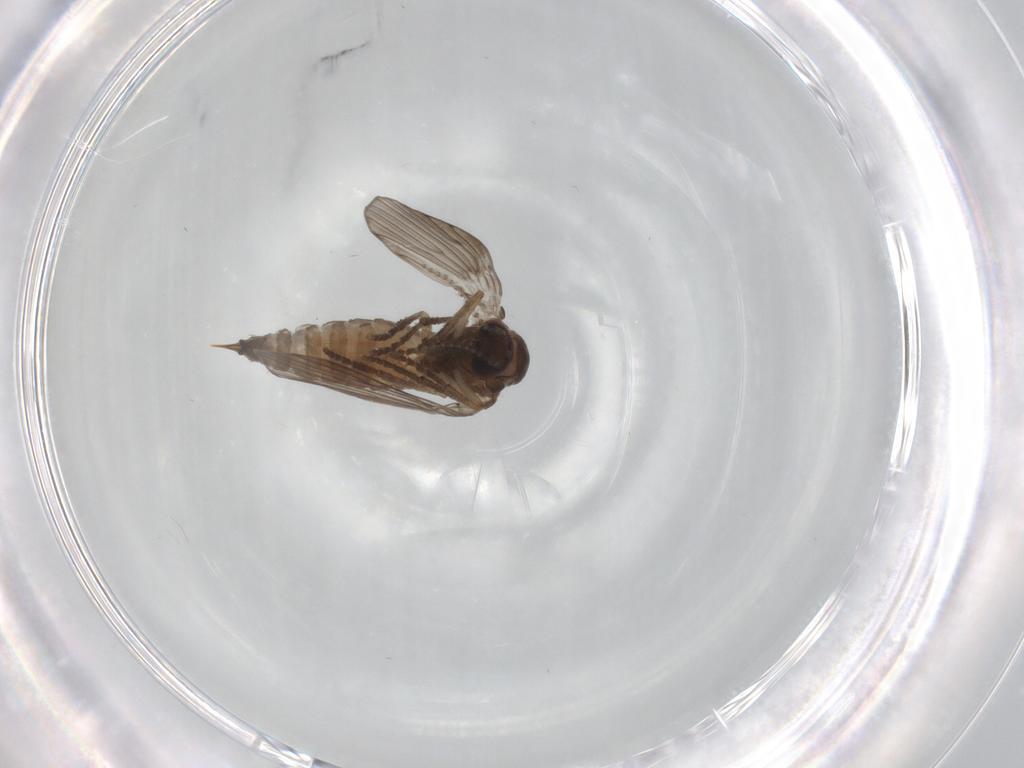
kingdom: Animalia
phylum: Arthropoda
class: Insecta
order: Diptera
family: Psychodidae
